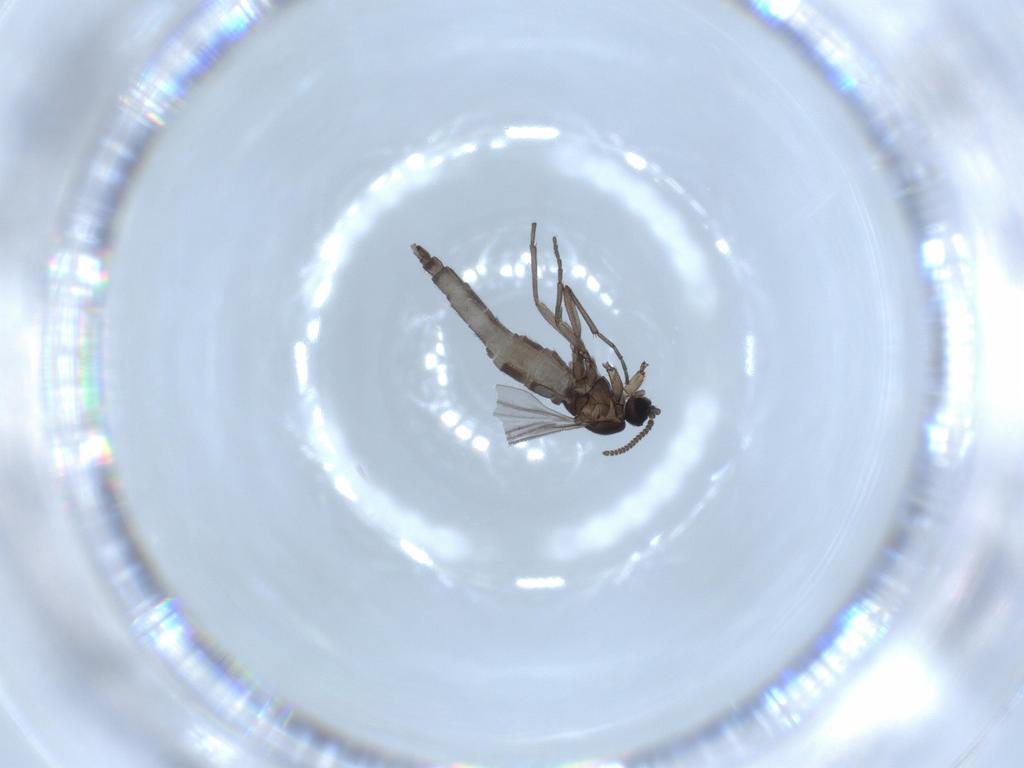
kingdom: Animalia
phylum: Arthropoda
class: Insecta
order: Diptera
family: Sciaridae
